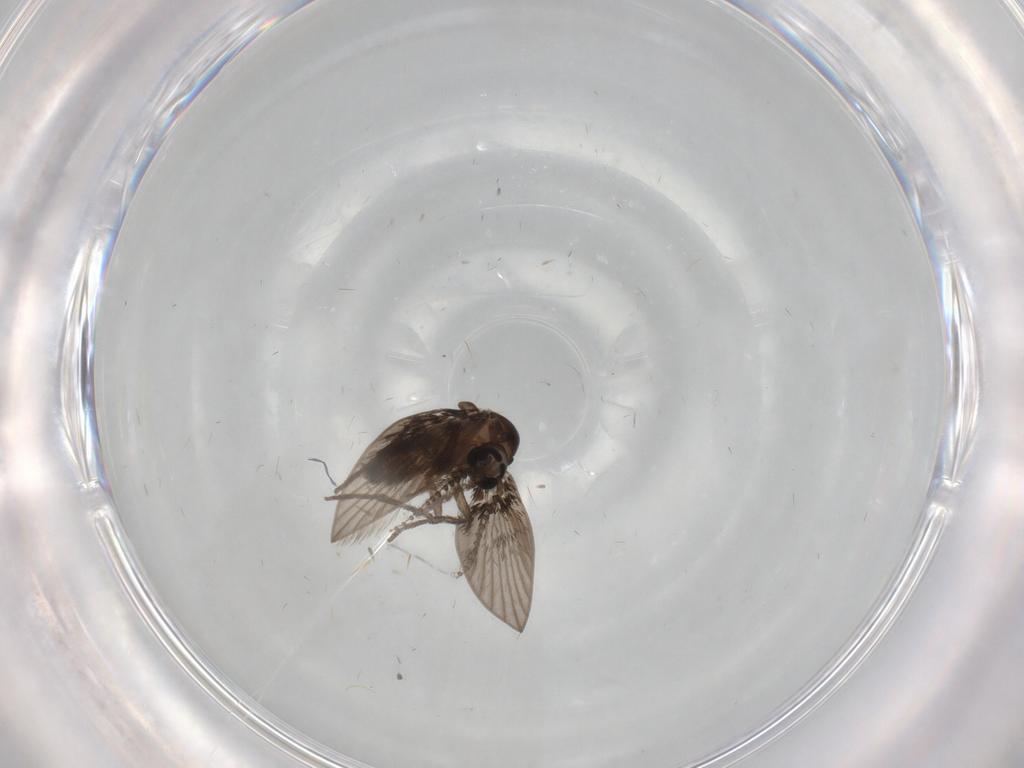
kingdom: Animalia
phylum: Arthropoda
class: Insecta
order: Diptera
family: Psychodidae
